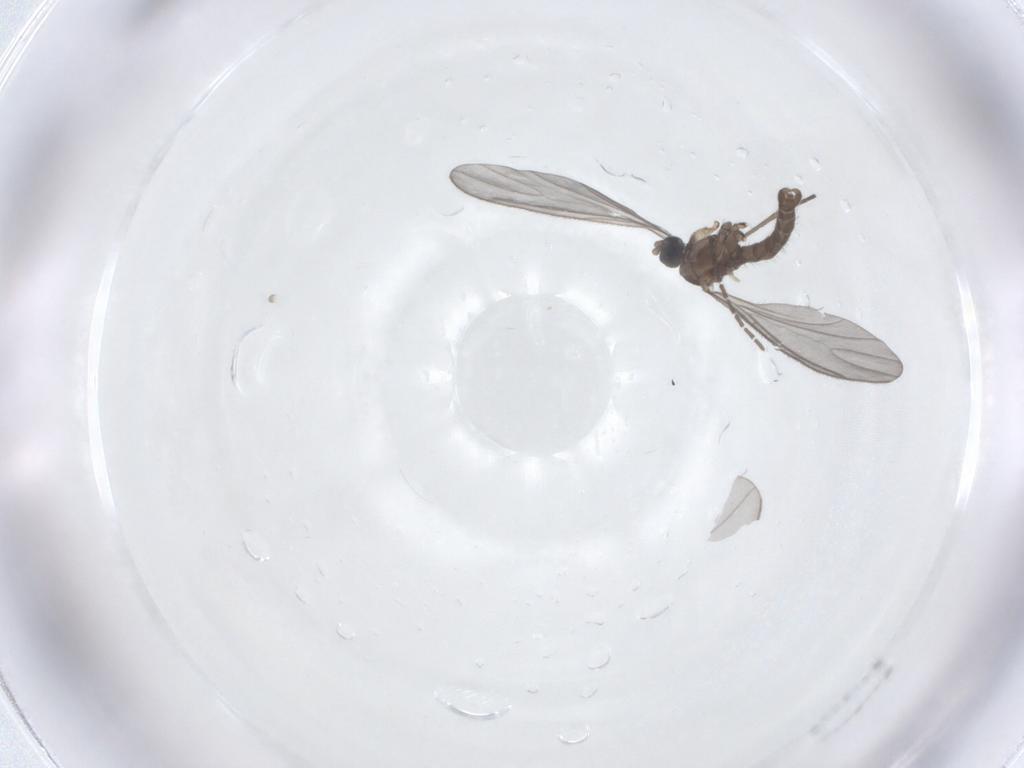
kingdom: Animalia
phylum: Arthropoda
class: Insecta
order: Diptera
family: Sciaridae
